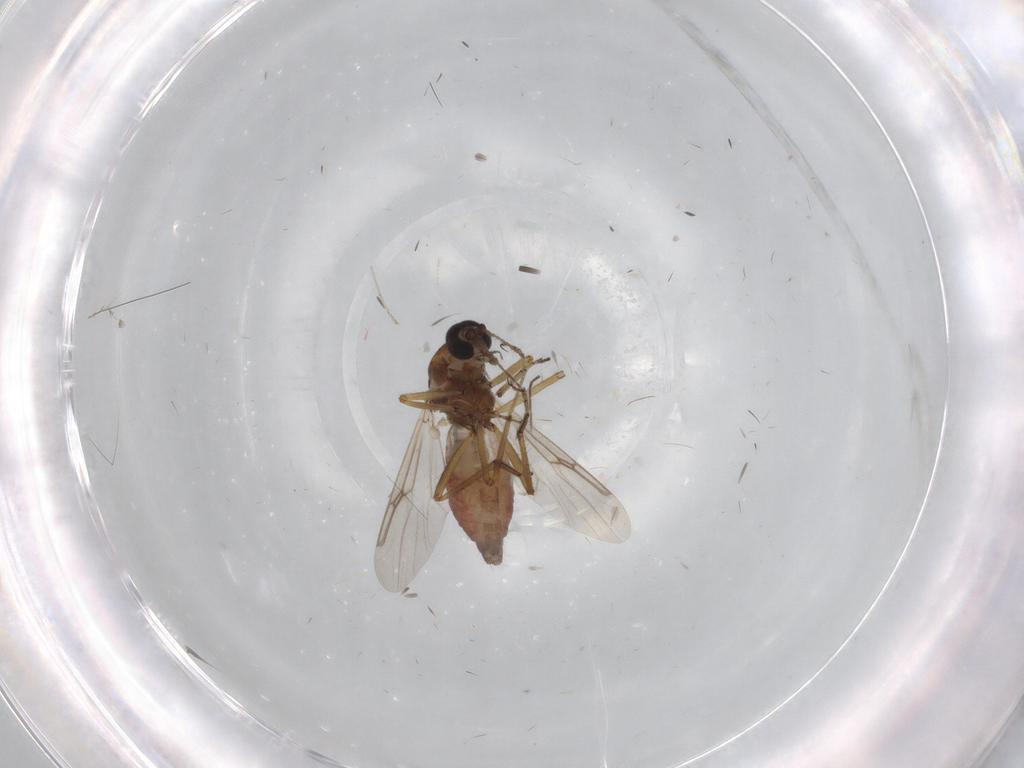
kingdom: Animalia
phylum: Arthropoda
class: Insecta
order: Diptera
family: Ceratopogonidae
